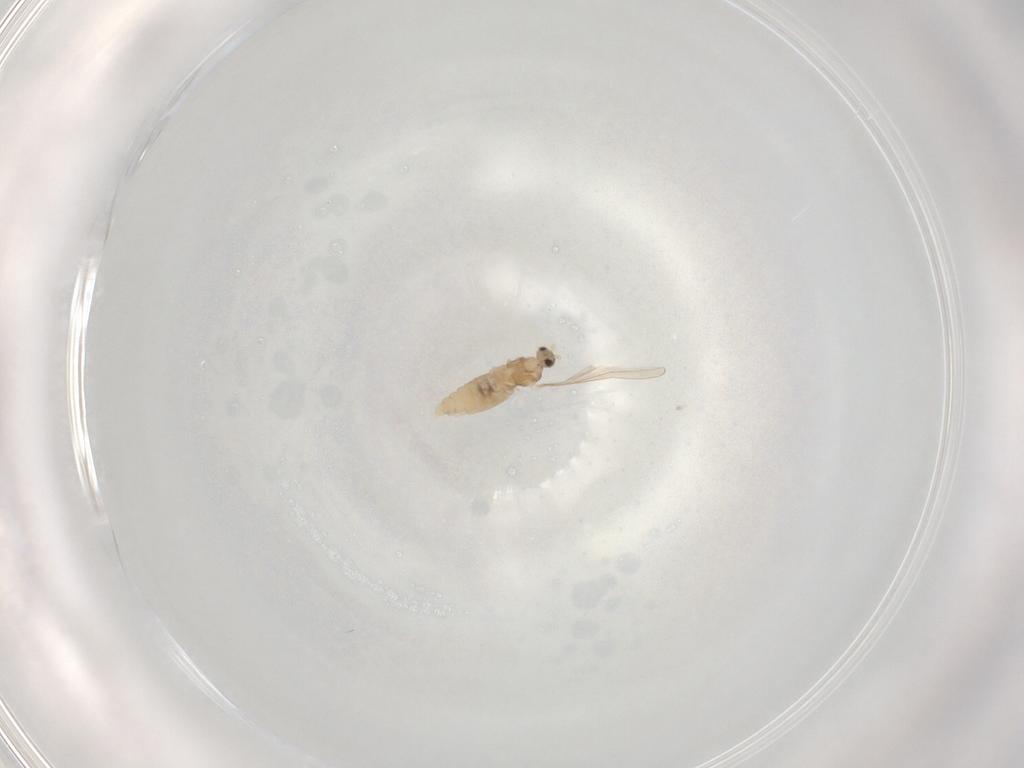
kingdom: Animalia
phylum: Arthropoda
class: Insecta
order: Diptera
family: Cecidomyiidae
